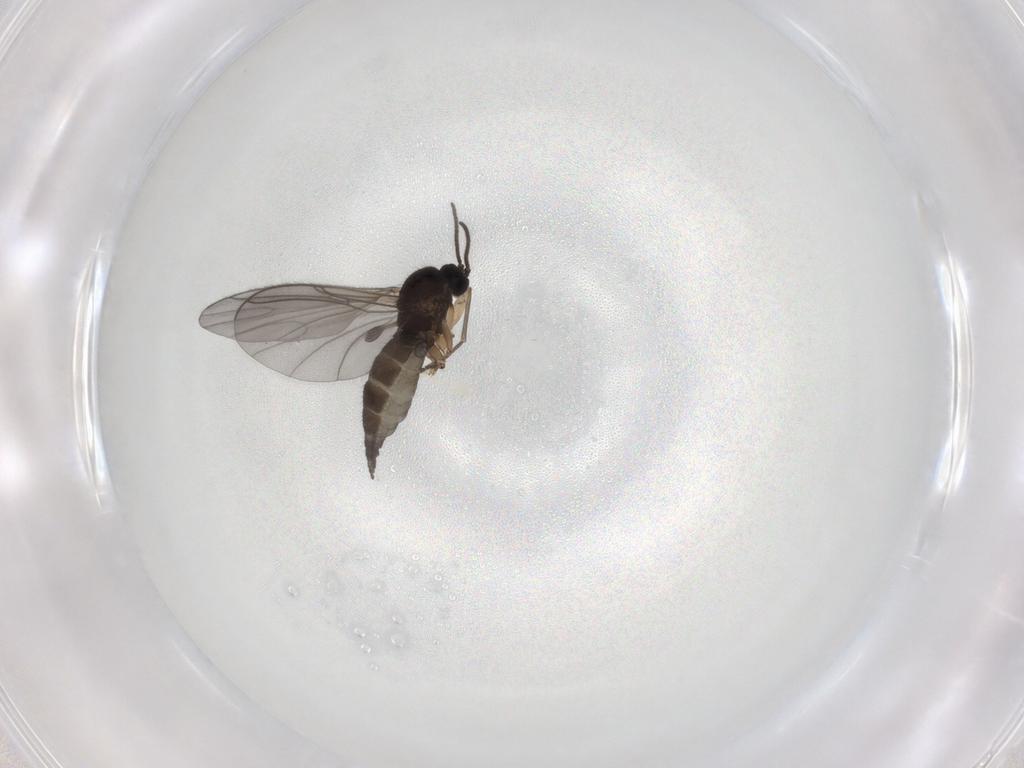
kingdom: Animalia
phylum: Arthropoda
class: Insecta
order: Diptera
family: Sciaridae
